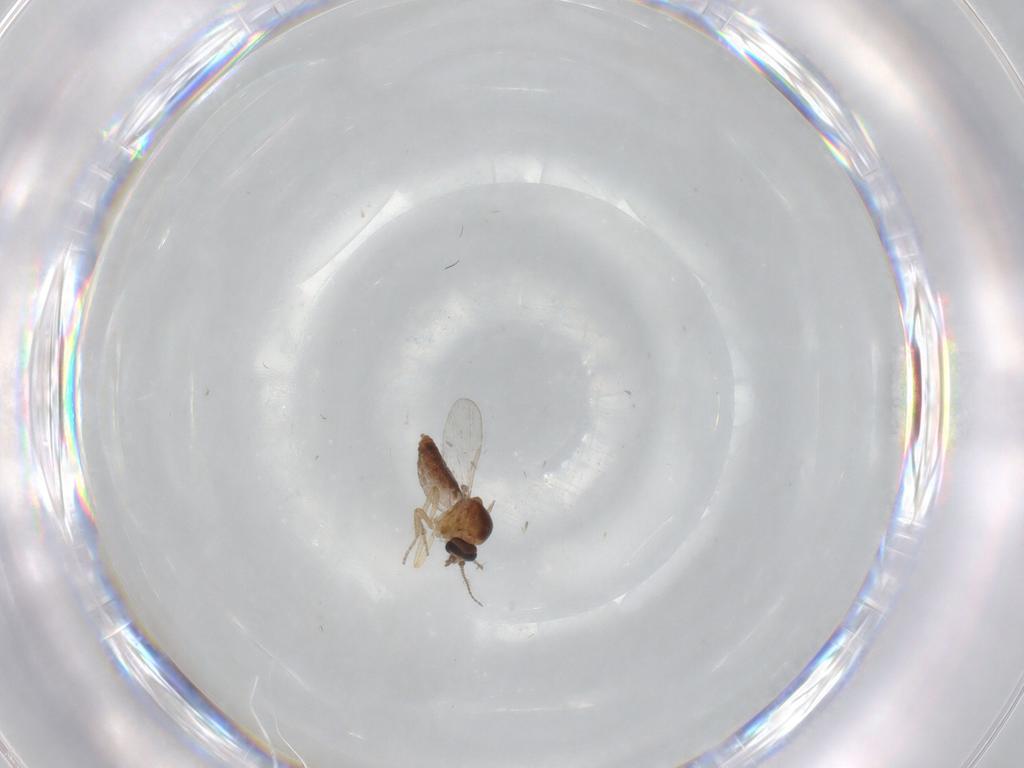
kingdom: Animalia
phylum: Arthropoda
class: Insecta
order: Diptera
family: Ceratopogonidae
